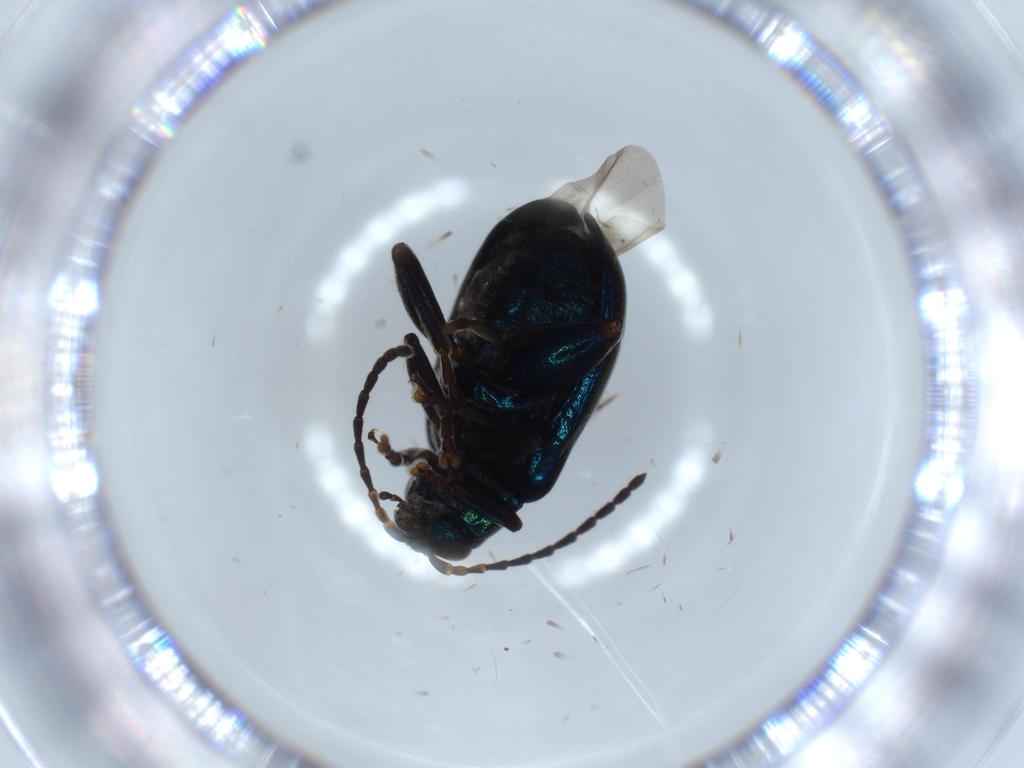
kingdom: Animalia
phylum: Arthropoda
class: Insecta
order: Coleoptera
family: Chrysomelidae
